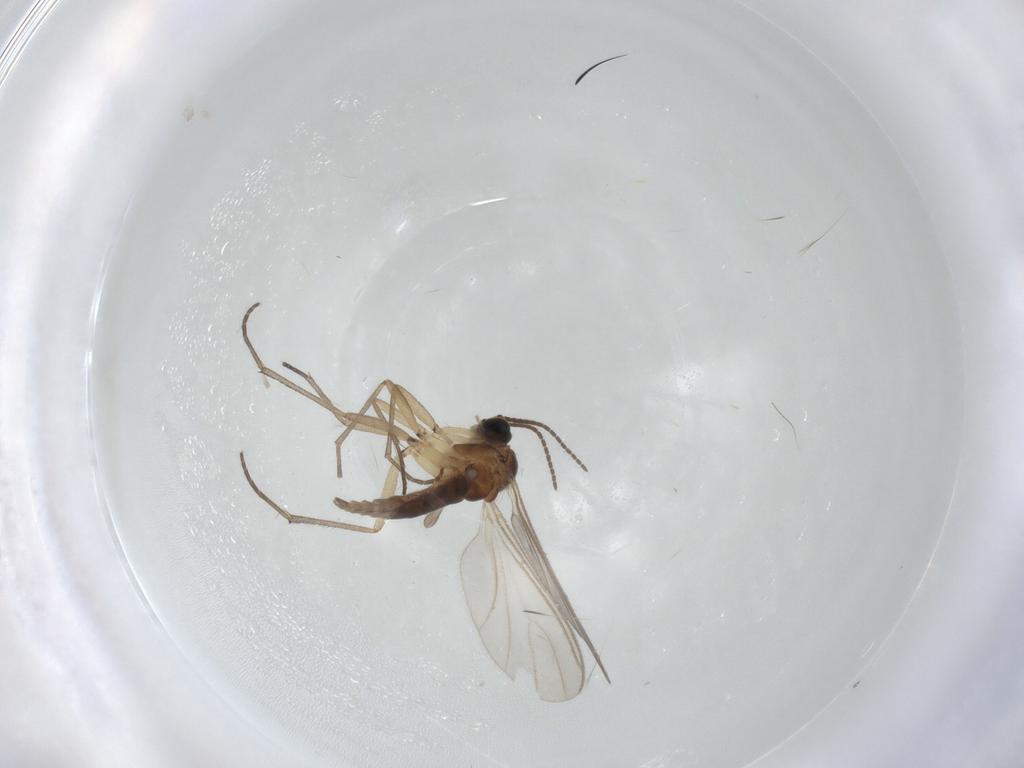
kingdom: Animalia
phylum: Arthropoda
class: Insecta
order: Diptera
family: Sciaridae
